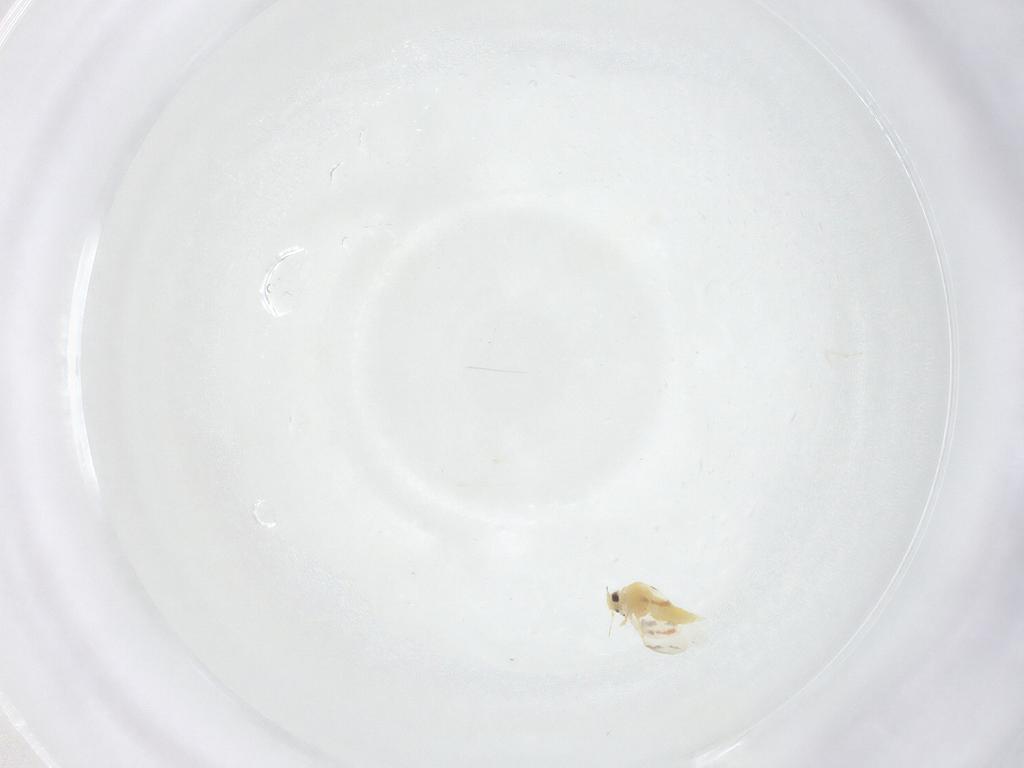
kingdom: Animalia
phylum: Arthropoda
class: Insecta
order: Hemiptera
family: Aleyrodidae
